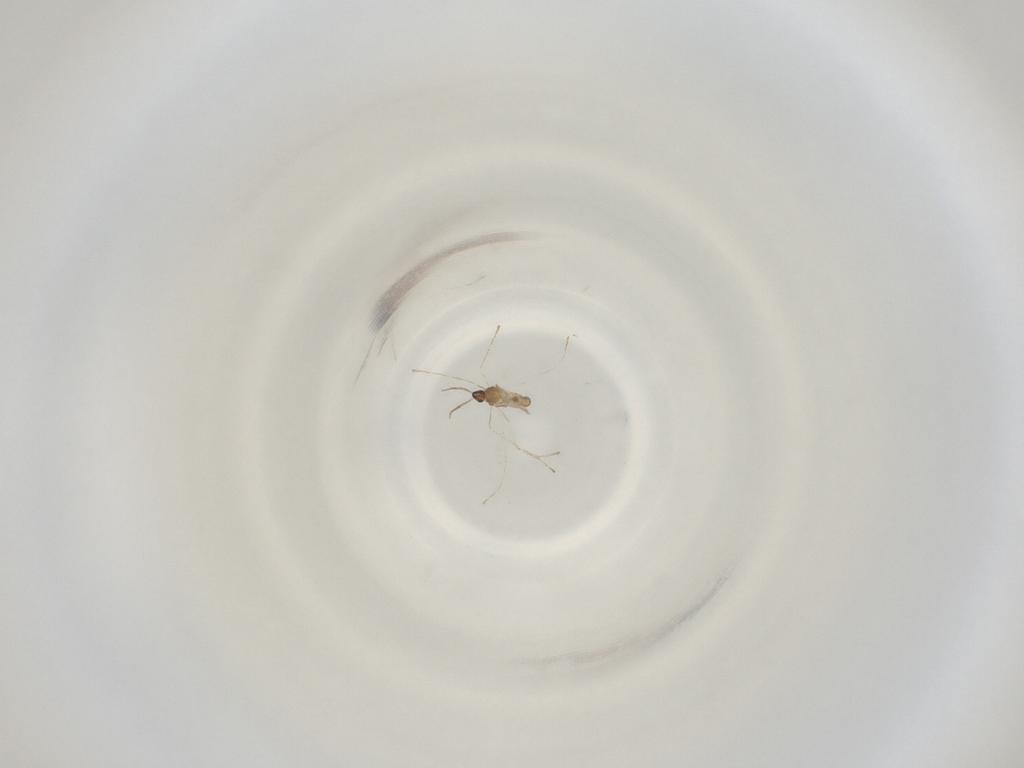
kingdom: Animalia
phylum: Arthropoda
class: Insecta
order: Diptera
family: Cecidomyiidae
